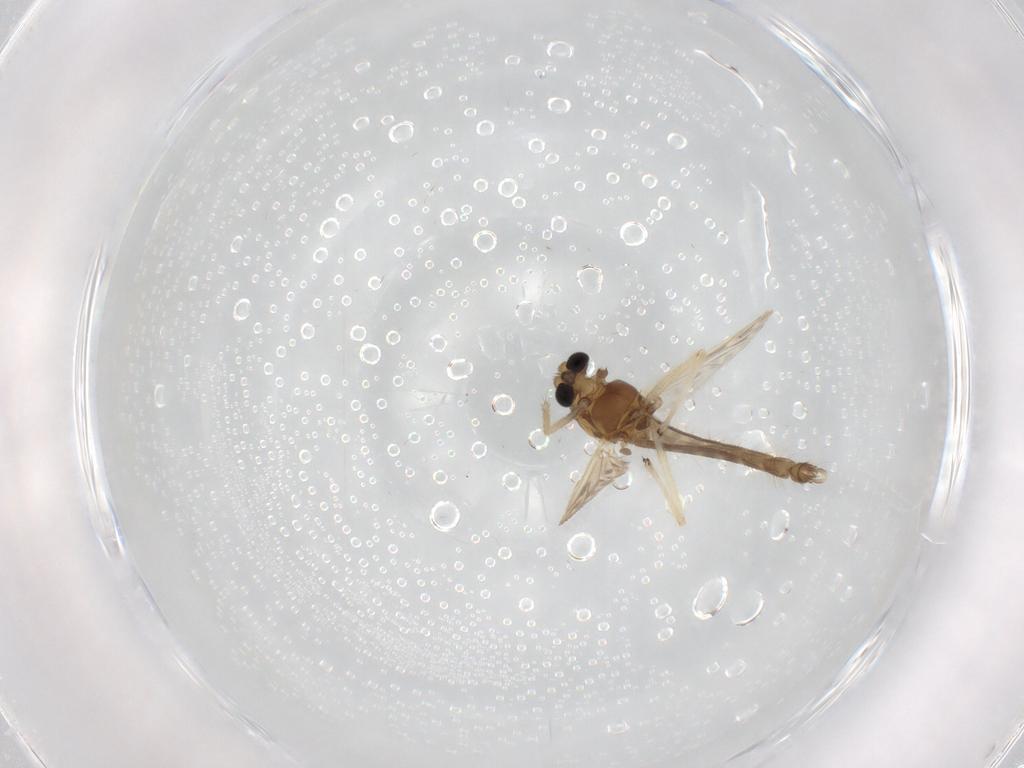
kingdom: Animalia
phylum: Arthropoda
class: Insecta
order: Diptera
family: Chironomidae
